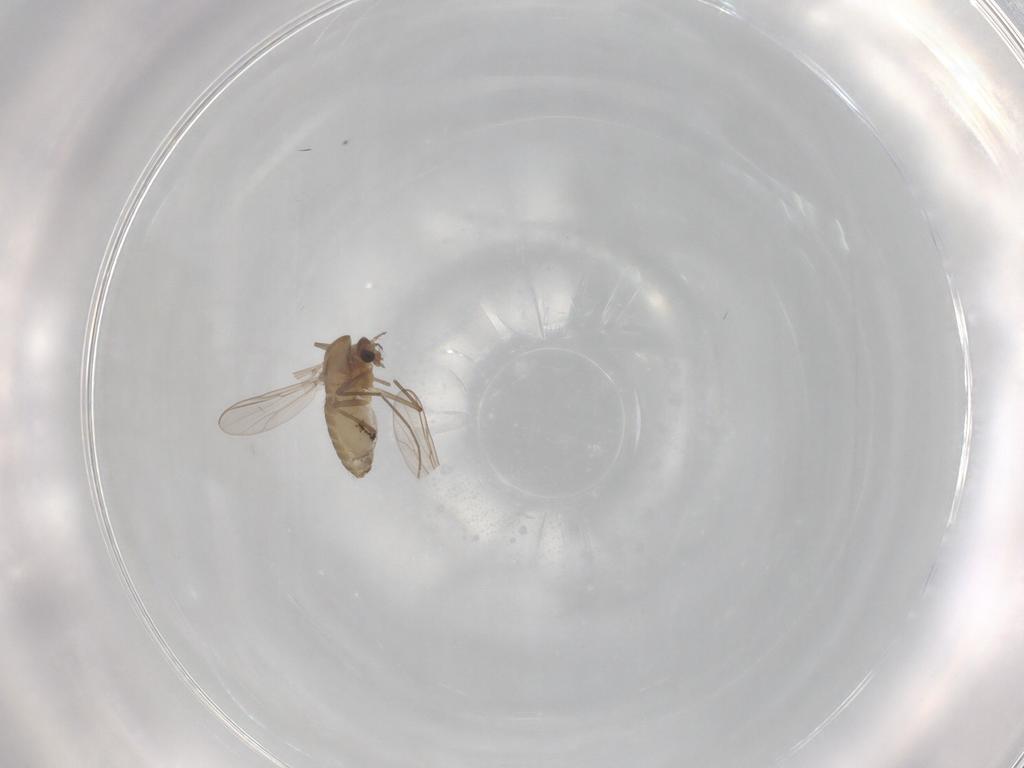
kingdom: Animalia
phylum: Arthropoda
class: Insecta
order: Diptera
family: Chironomidae
